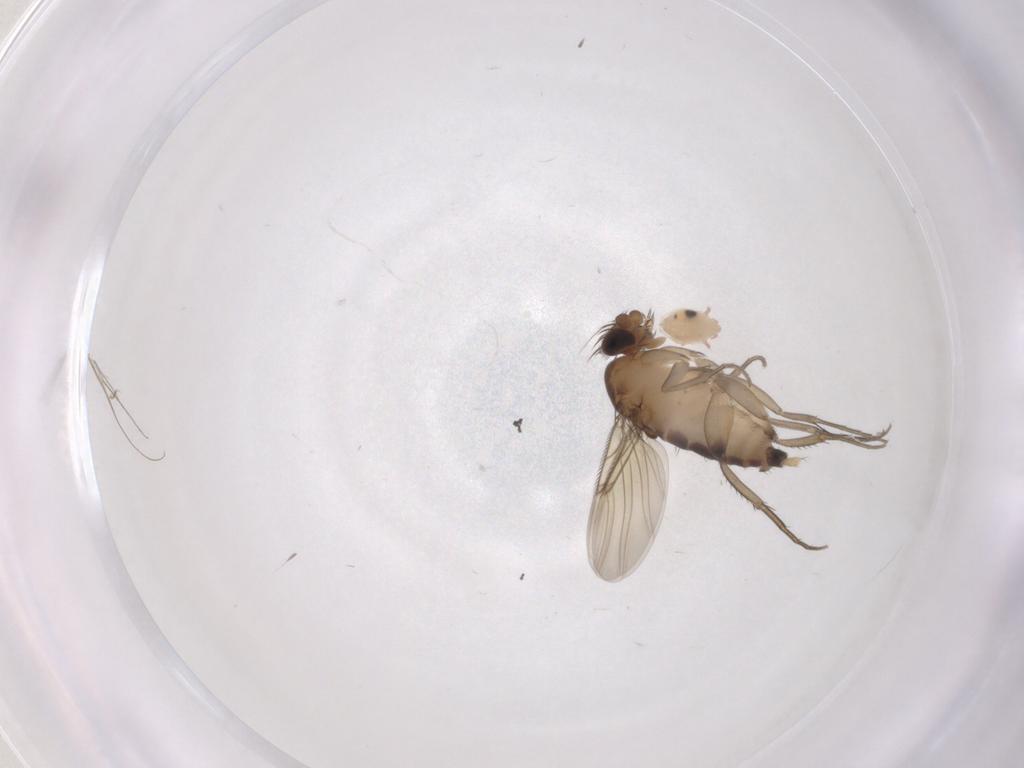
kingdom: Animalia
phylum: Arthropoda
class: Insecta
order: Diptera
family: Phoridae
